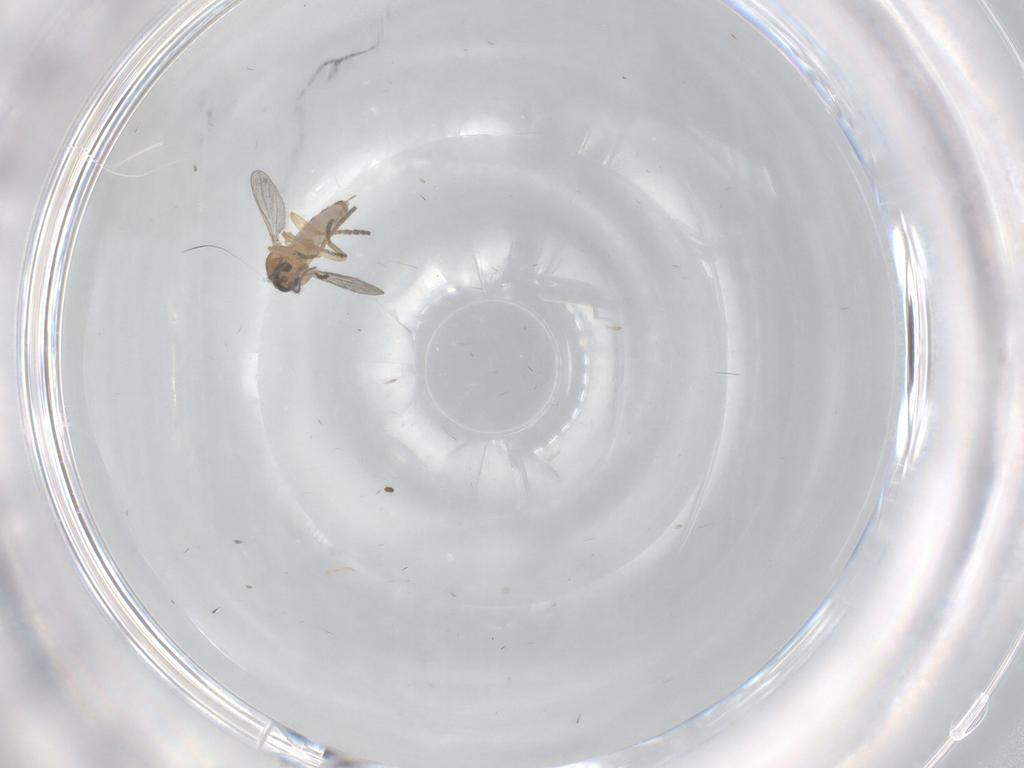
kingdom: Animalia
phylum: Arthropoda
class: Insecta
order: Diptera
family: Ceratopogonidae
